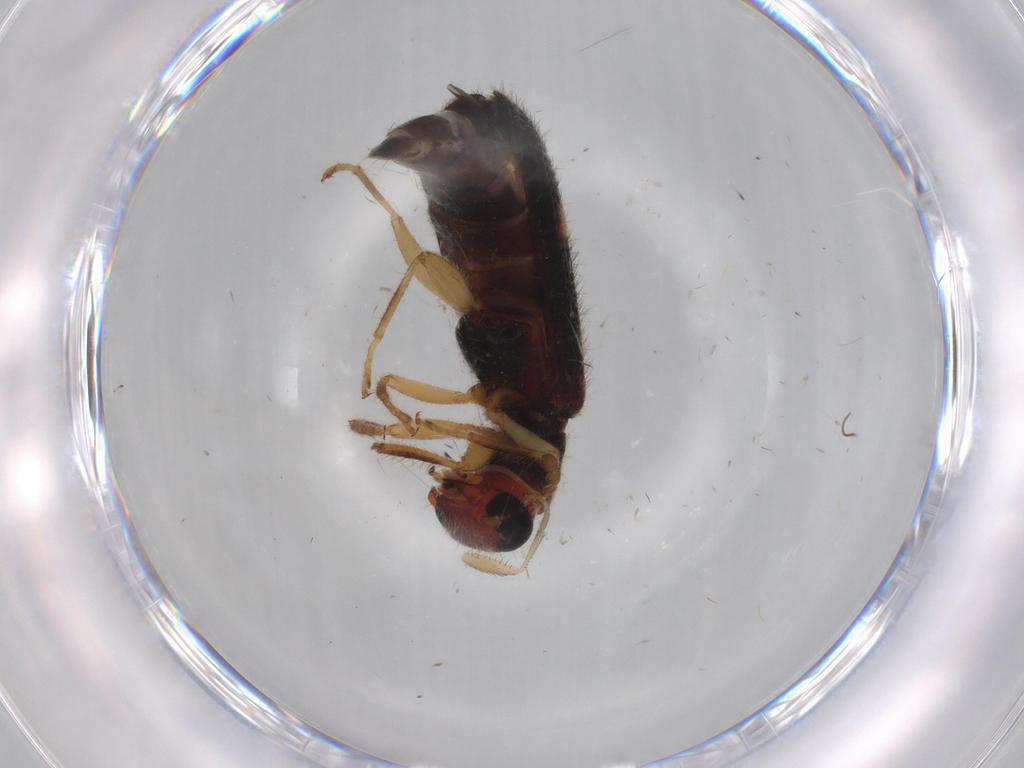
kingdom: Animalia
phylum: Arthropoda
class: Insecta
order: Coleoptera
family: Cleridae
